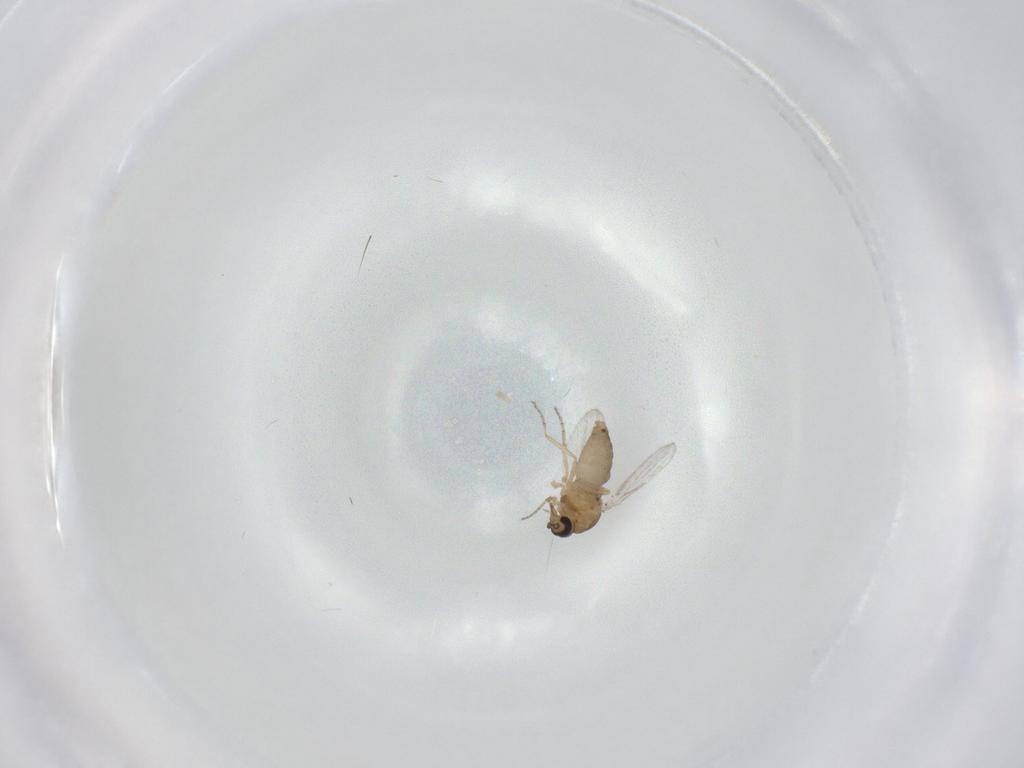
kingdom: Animalia
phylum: Arthropoda
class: Insecta
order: Diptera
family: Ceratopogonidae
